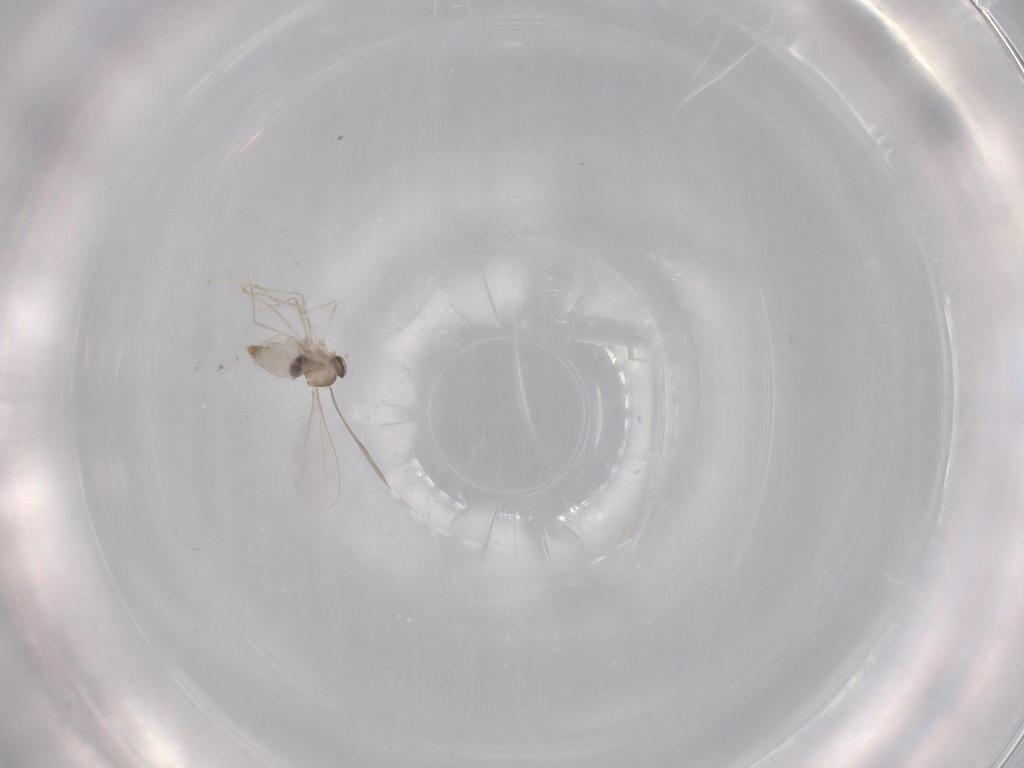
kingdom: Animalia
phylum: Arthropoda
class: Insecta
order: Diptera
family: Cecidomyiidae
